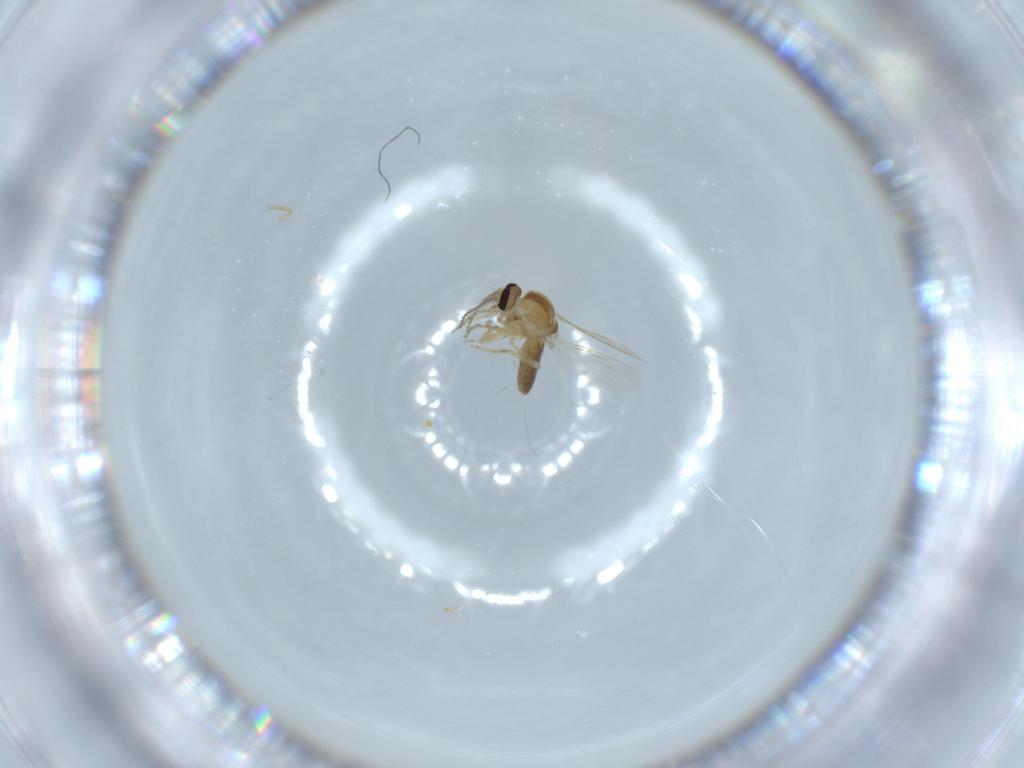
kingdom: Animalia
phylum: Arthropoda
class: Insecta
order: Diptera
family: Ceratopogonidae
